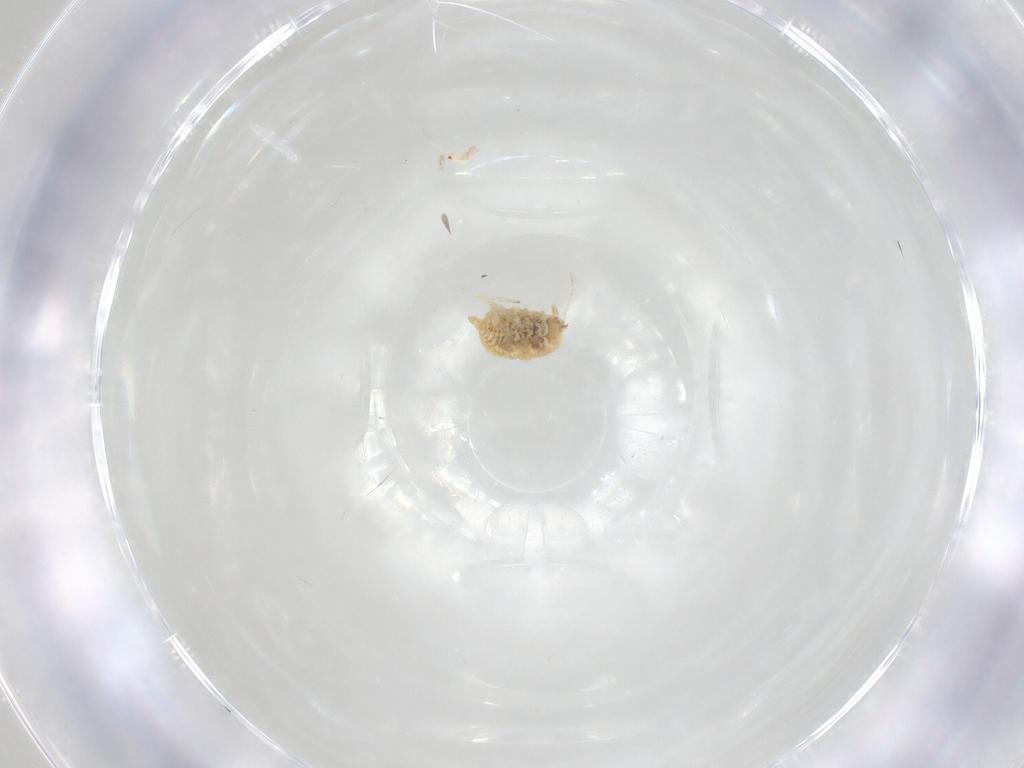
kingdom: Animalia
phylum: Arthropoda
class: Insecta
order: Neuroptera
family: Coniopterygidae
